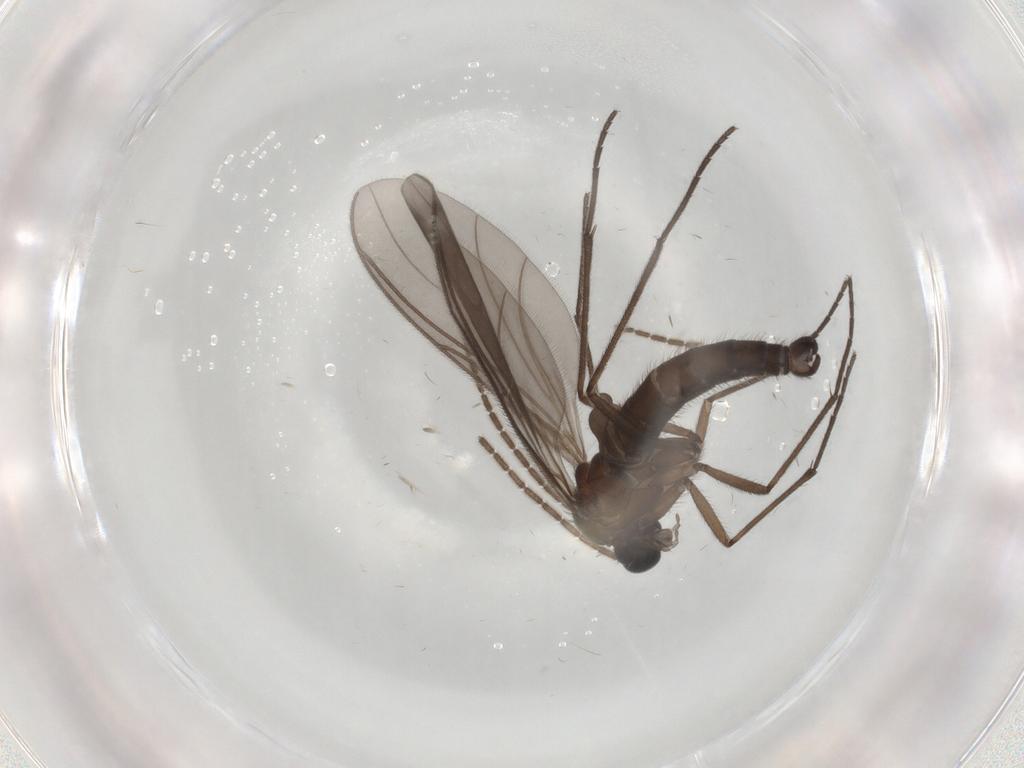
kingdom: Animalia
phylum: Arthropoda
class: Insecta
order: Diptera
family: Sciaridae
